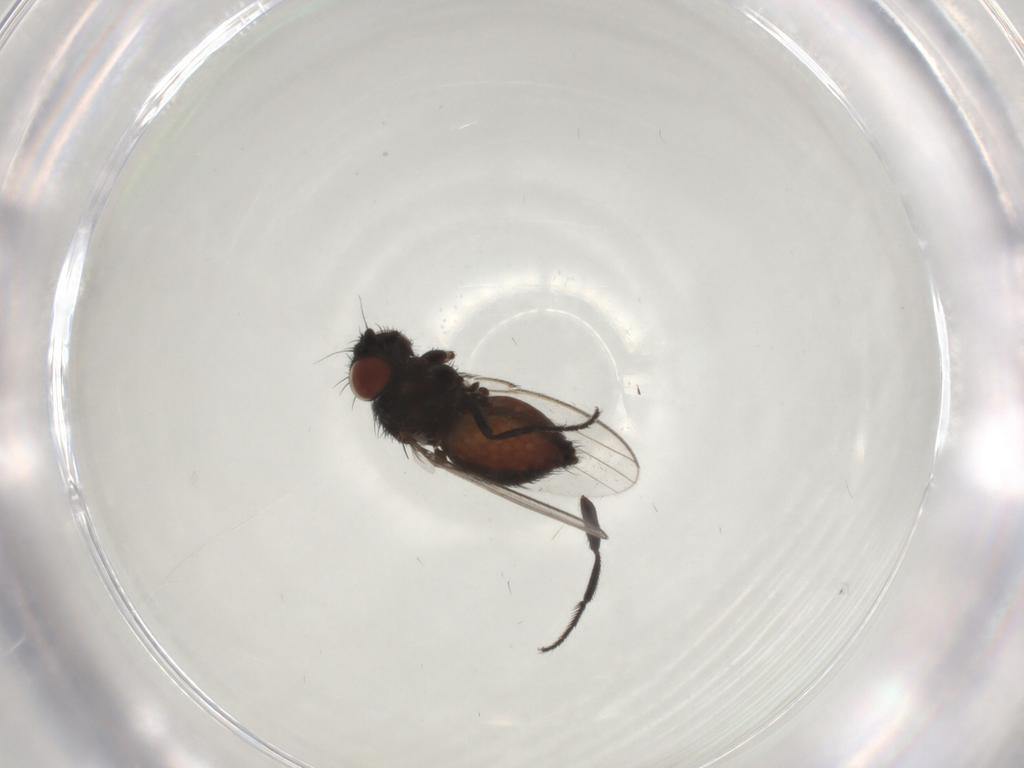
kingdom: Animalia
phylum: Arthropoda
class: Insecta
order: Diptera
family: Milichiidae
